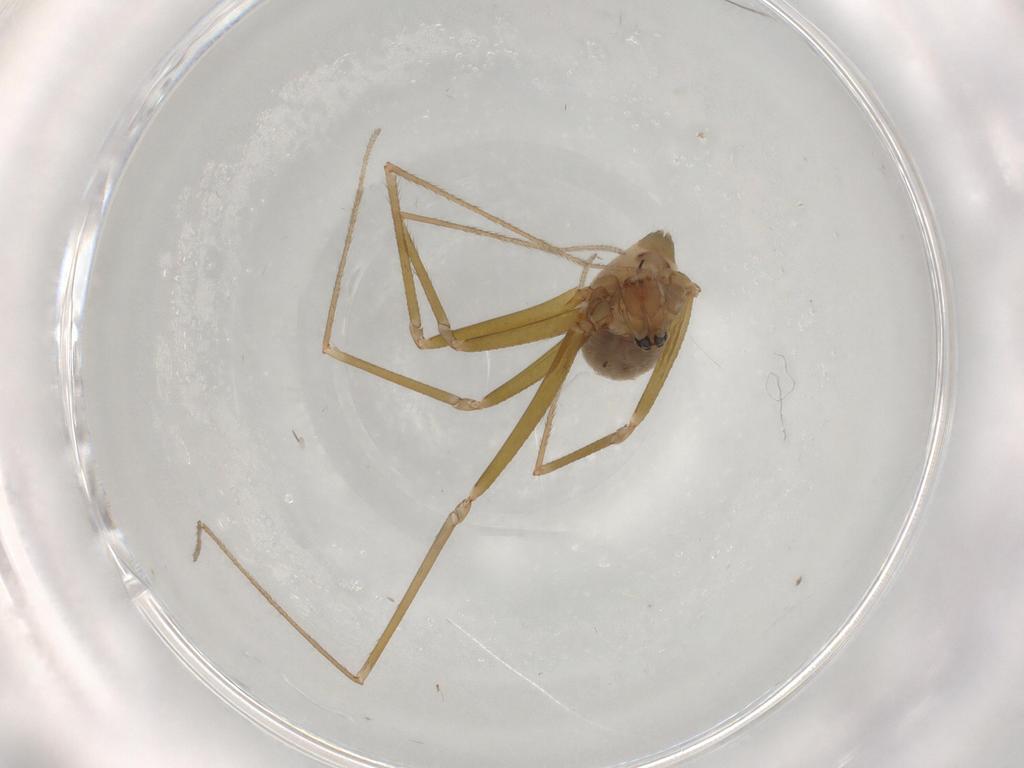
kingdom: Animalia
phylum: Arthropoda
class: Arachnida
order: Araneae
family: Pholcidae
